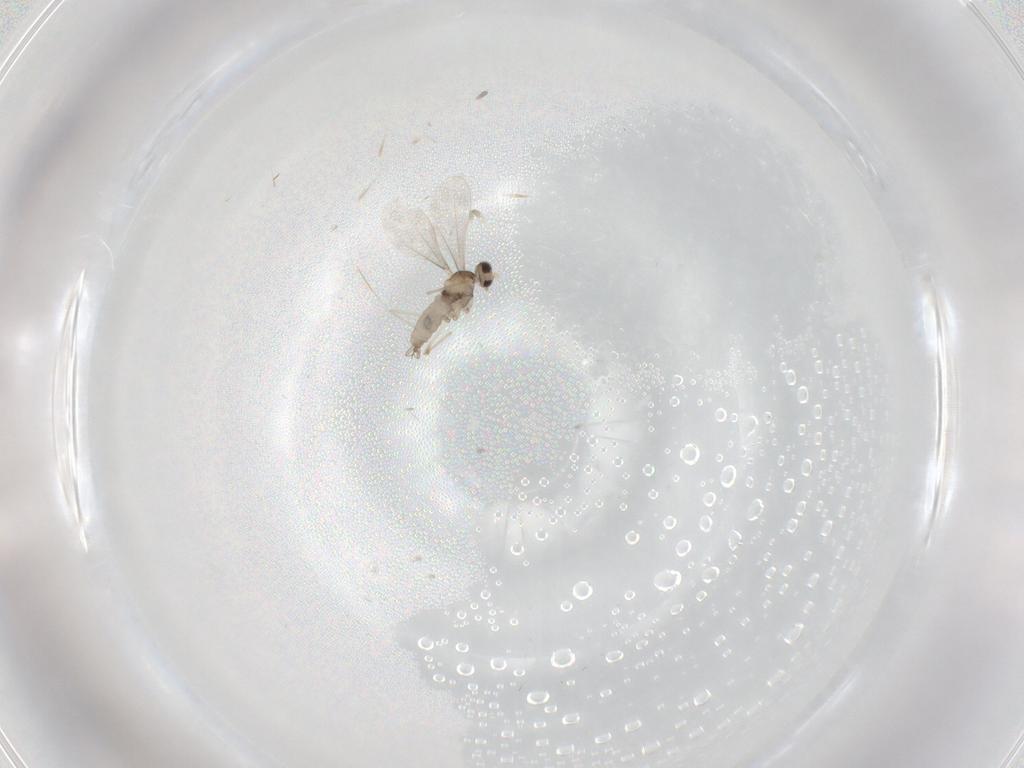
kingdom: Animalia
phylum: Arthropoda
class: Insecta
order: Diptera
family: Cecidomyiidae
